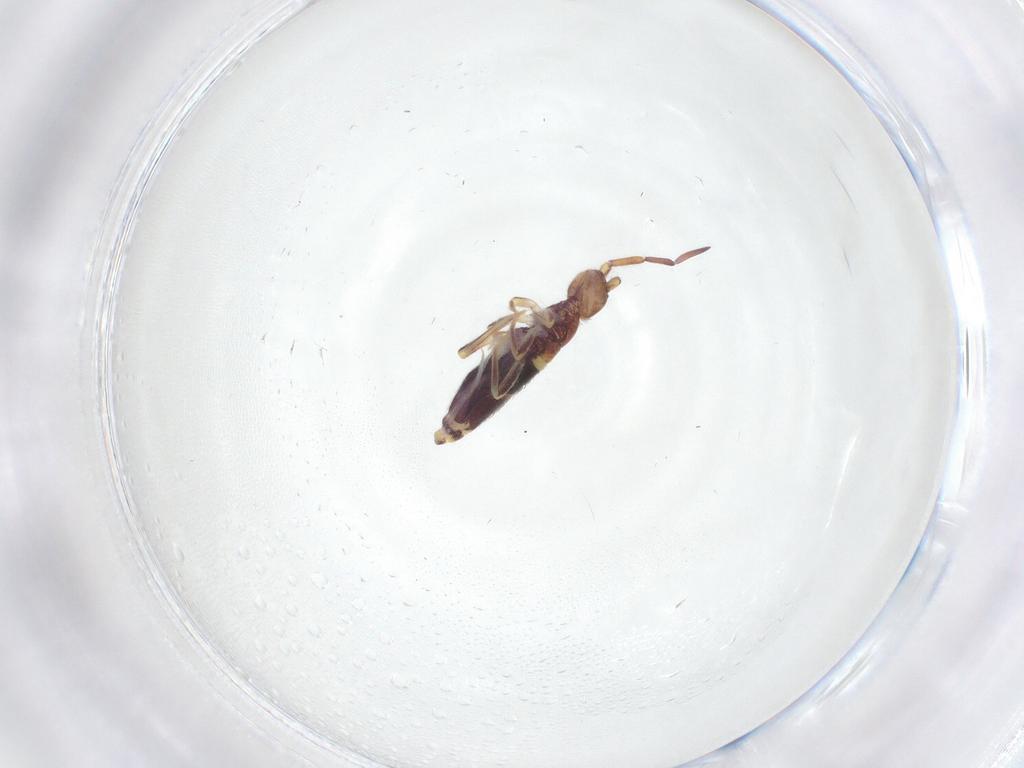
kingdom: Animalia
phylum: Arthropoda
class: Collembola
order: Entomobryomorpha
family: Entomobryidae
